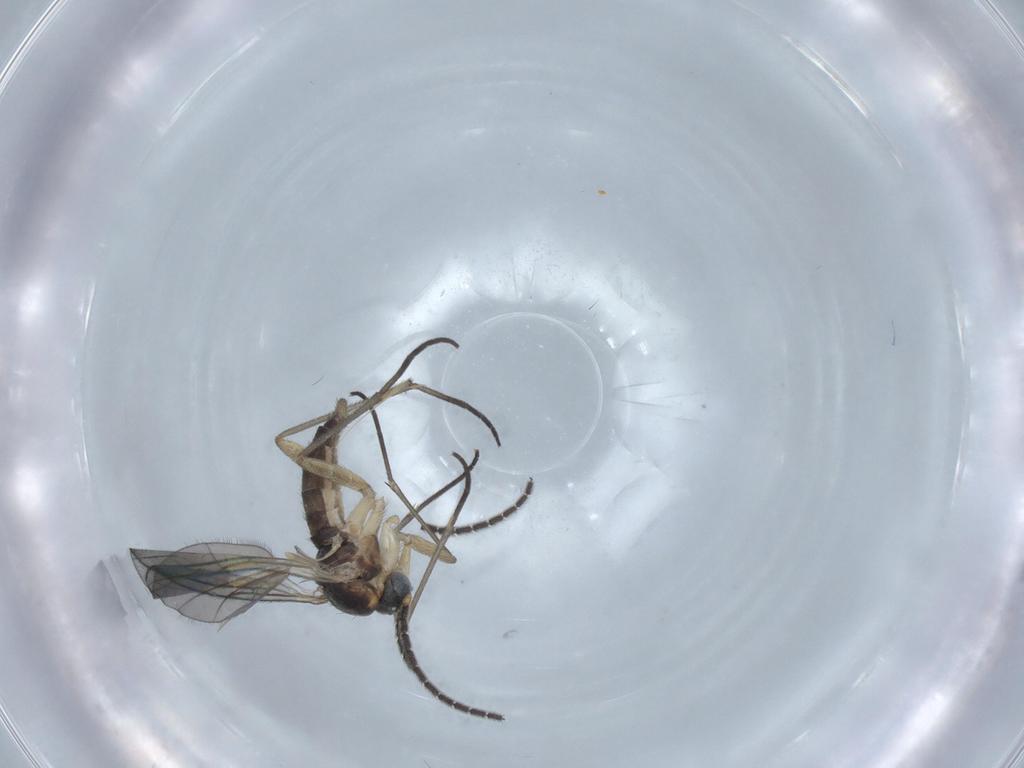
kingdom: Animalia
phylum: Arthropoda
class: Insecta
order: Diptera
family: Sciaridae
